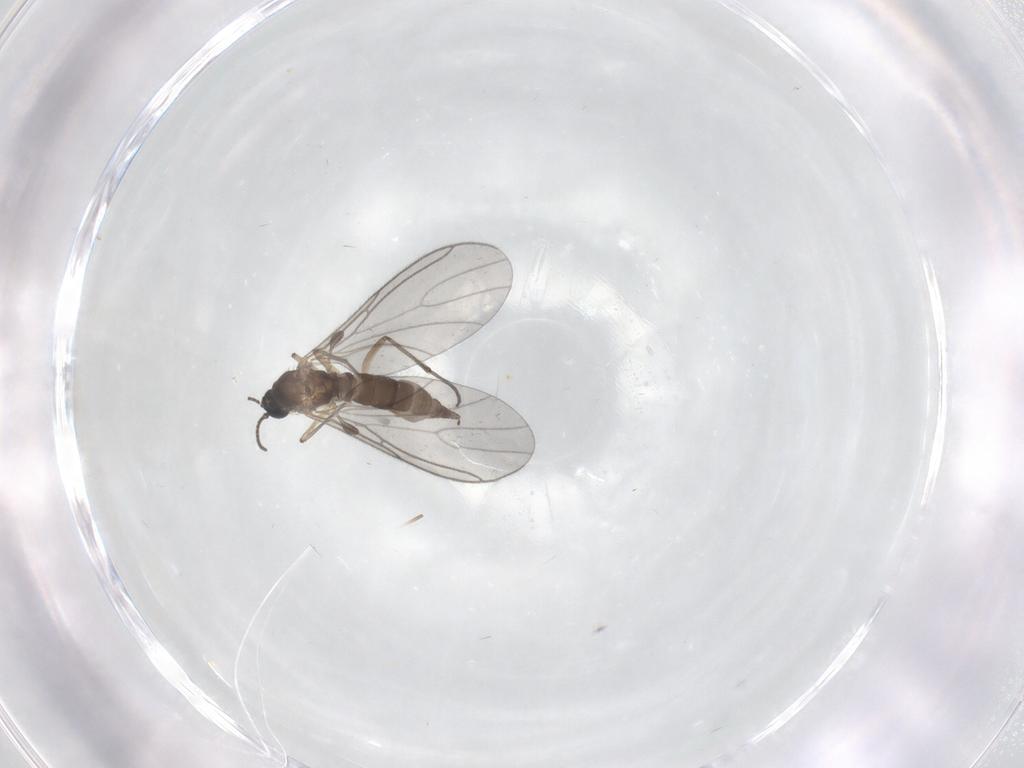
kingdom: Animalia
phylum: Arthropoda
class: Insecta
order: Diptera
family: Sciaridae
